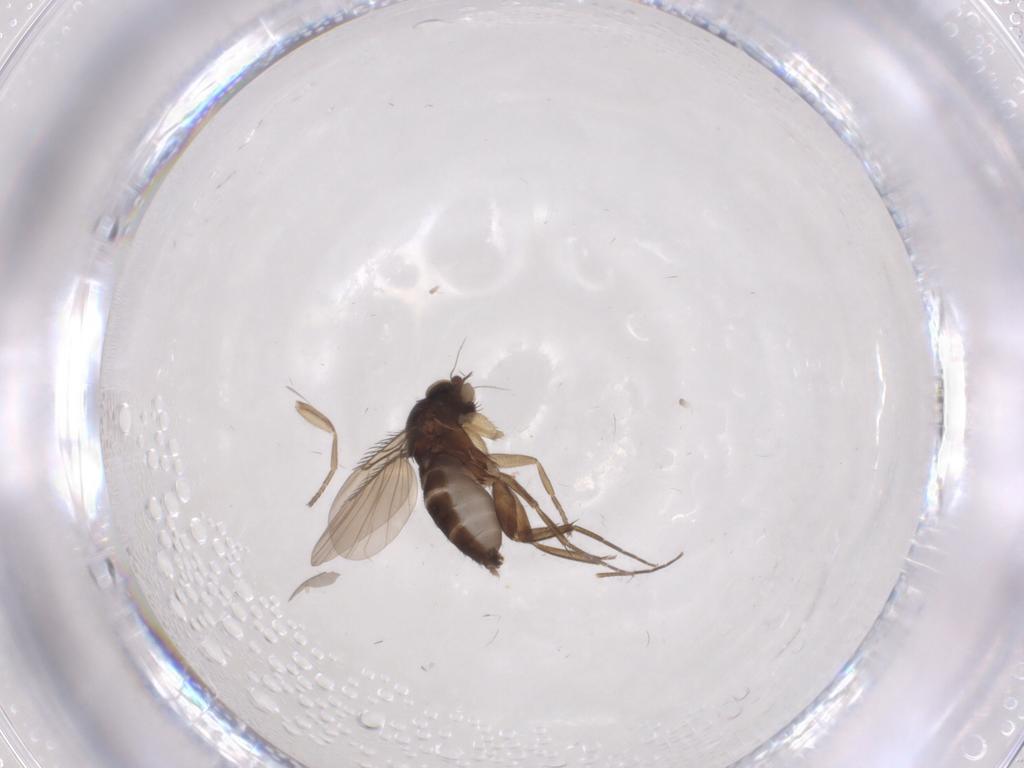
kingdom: Animalia
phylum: Arthropoda
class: Insecta
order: Diptera
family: Phoridae
